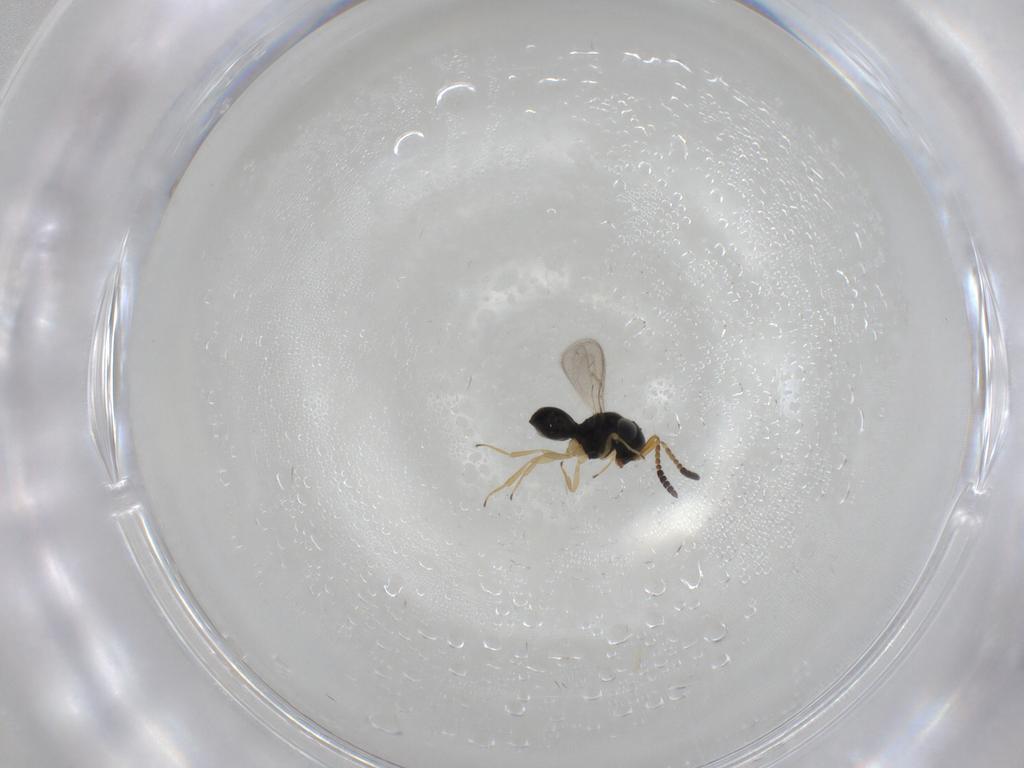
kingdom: Animalia
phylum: Arthropoda
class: Insecta
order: Hymenoptera
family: Scelionidae
